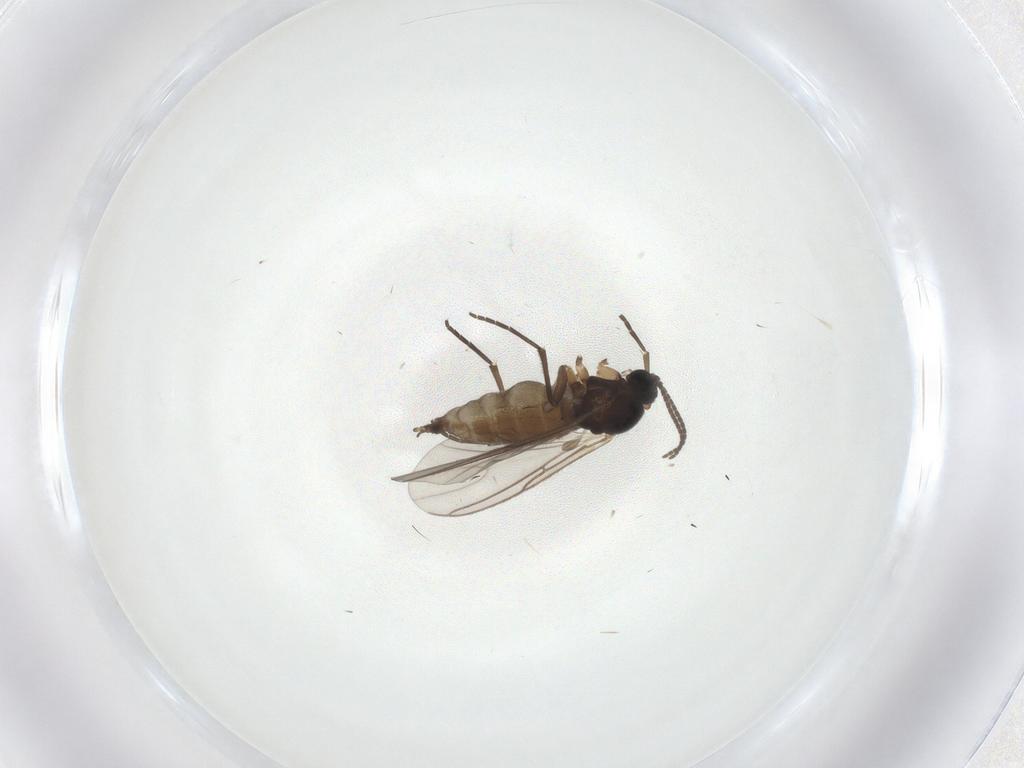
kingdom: Animalia
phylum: Arthropoda
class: Insecta
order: Diptera
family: Sciaridae
